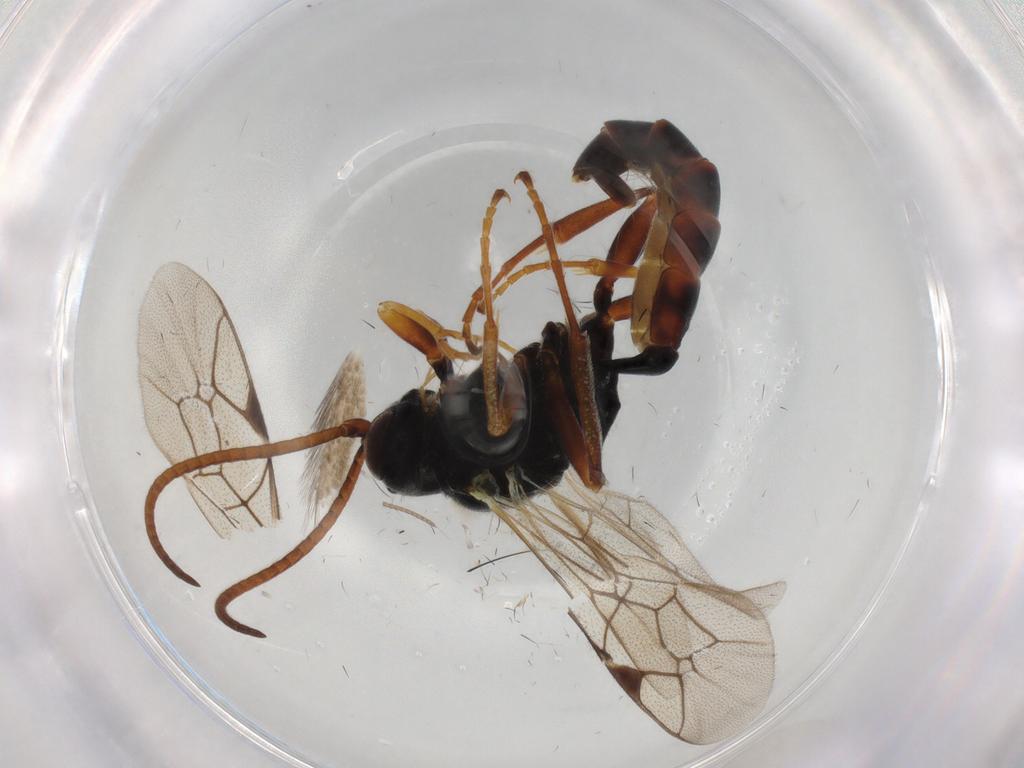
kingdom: Animalia
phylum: Arthropoda
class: Insecta
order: Hymenoptera
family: Ichneumonidae
